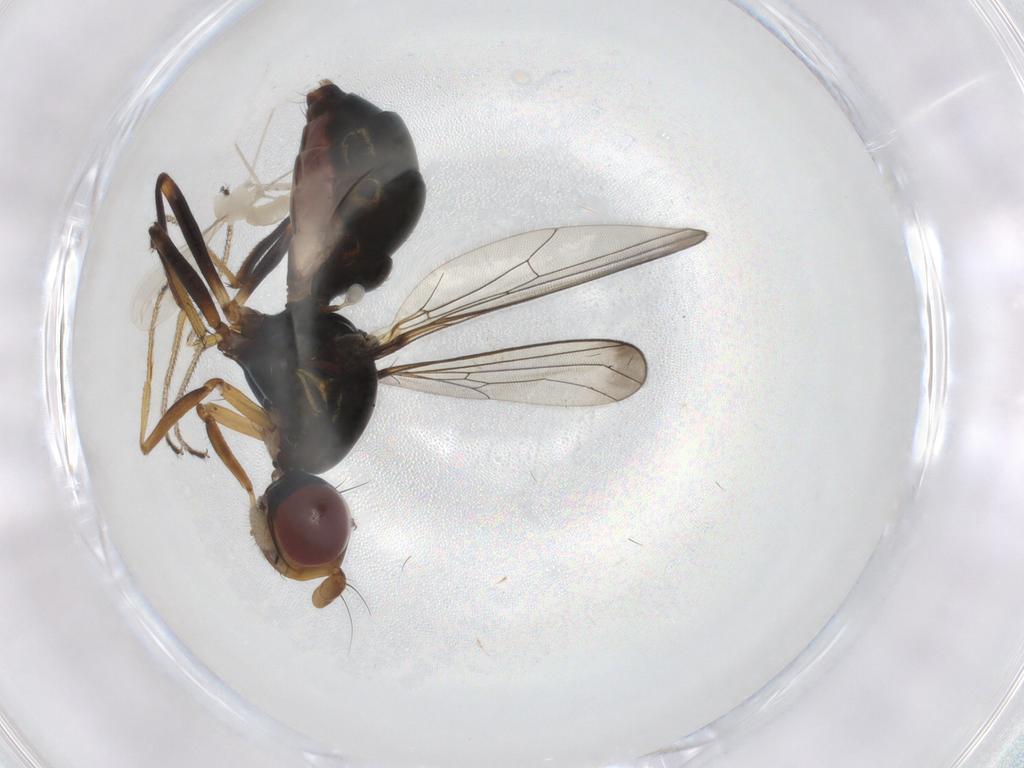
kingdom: Animalia
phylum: Arthropoda
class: Insecta
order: Diptera
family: Sepsidae
